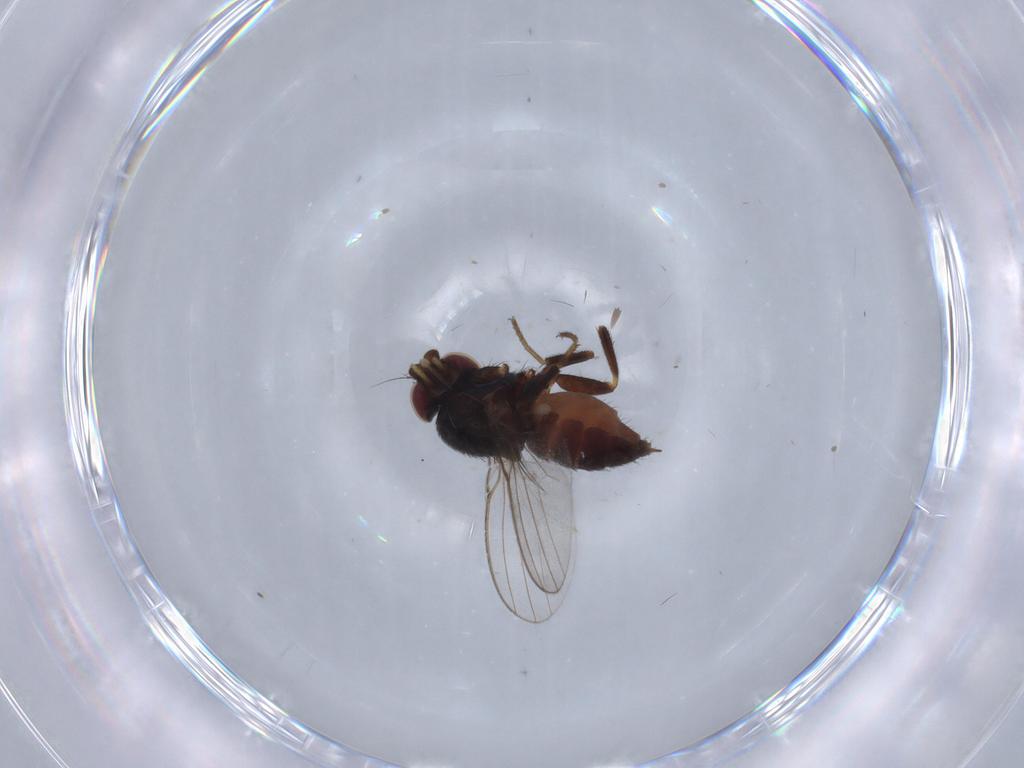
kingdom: Animalia
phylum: Arthropoda
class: Insecta
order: Diptera
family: Milichiidae
